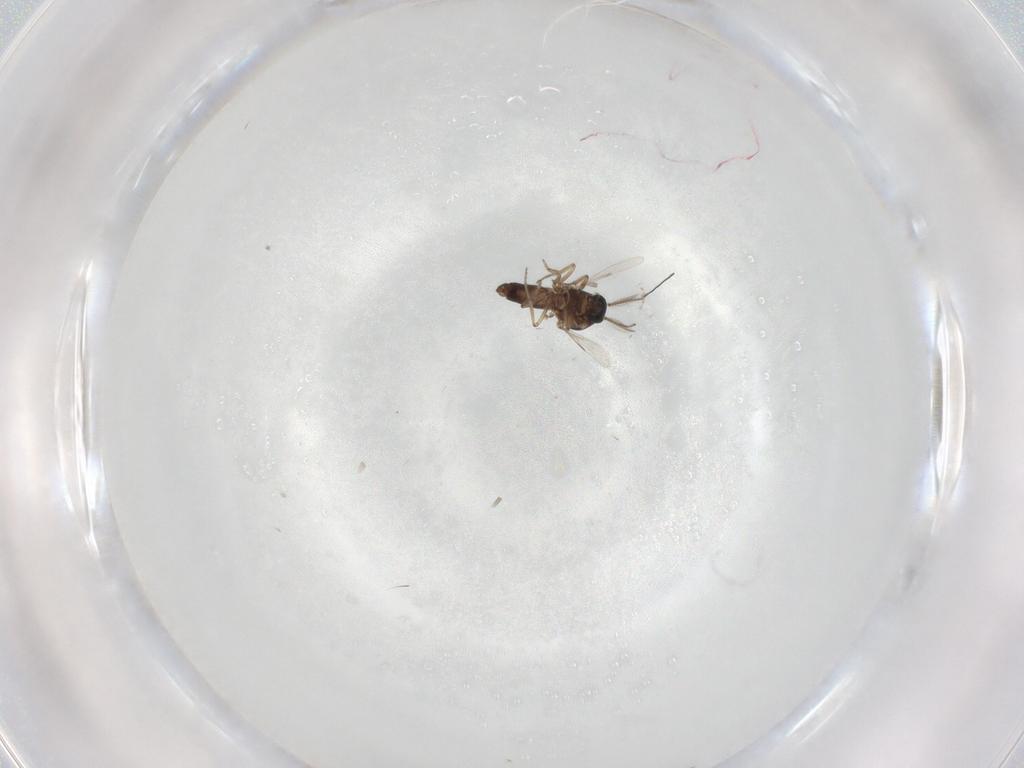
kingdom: Animalia
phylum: Arthropoda
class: Insecta
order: Diptera
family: Ceratopogonidae
